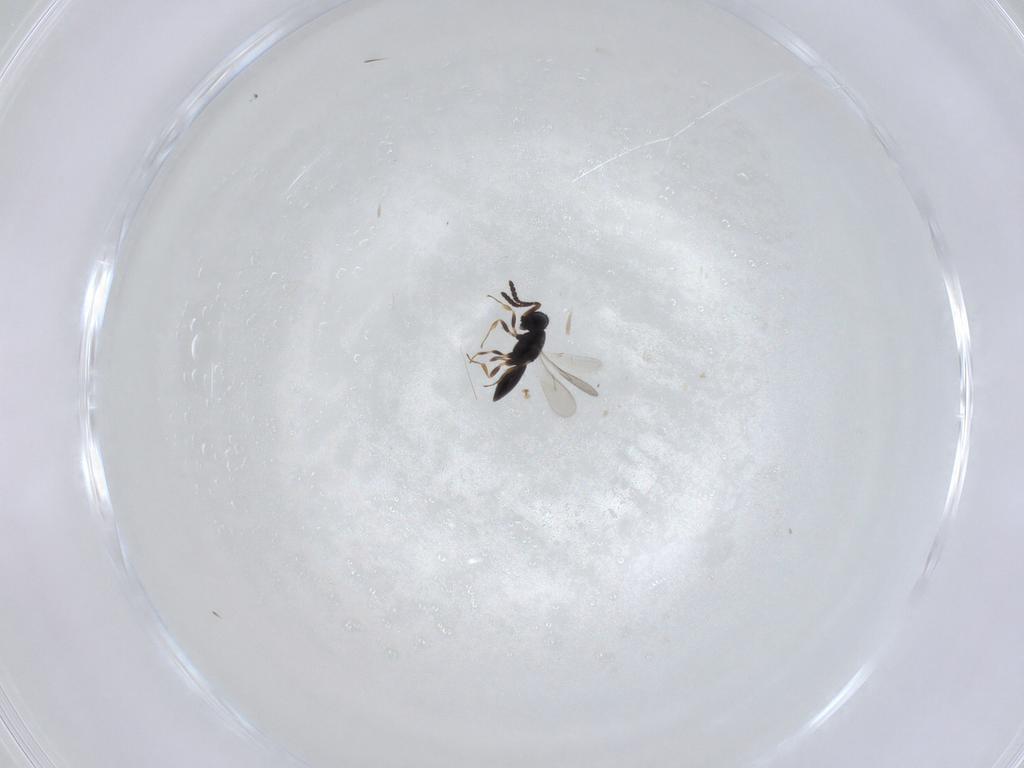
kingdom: Animalia
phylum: Arthropoda
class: Insecta
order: Hymenoptera
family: Scelionidae
